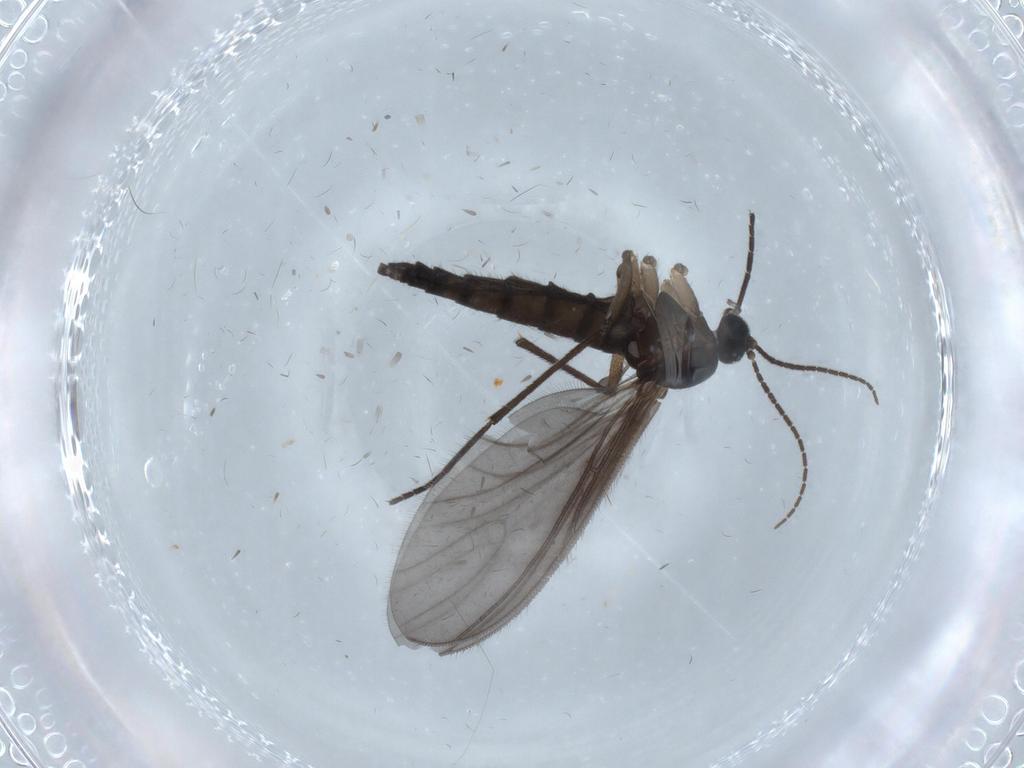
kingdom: Animalia
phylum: Arthropoda
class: Insecta
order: Diptera
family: Sciaridae
